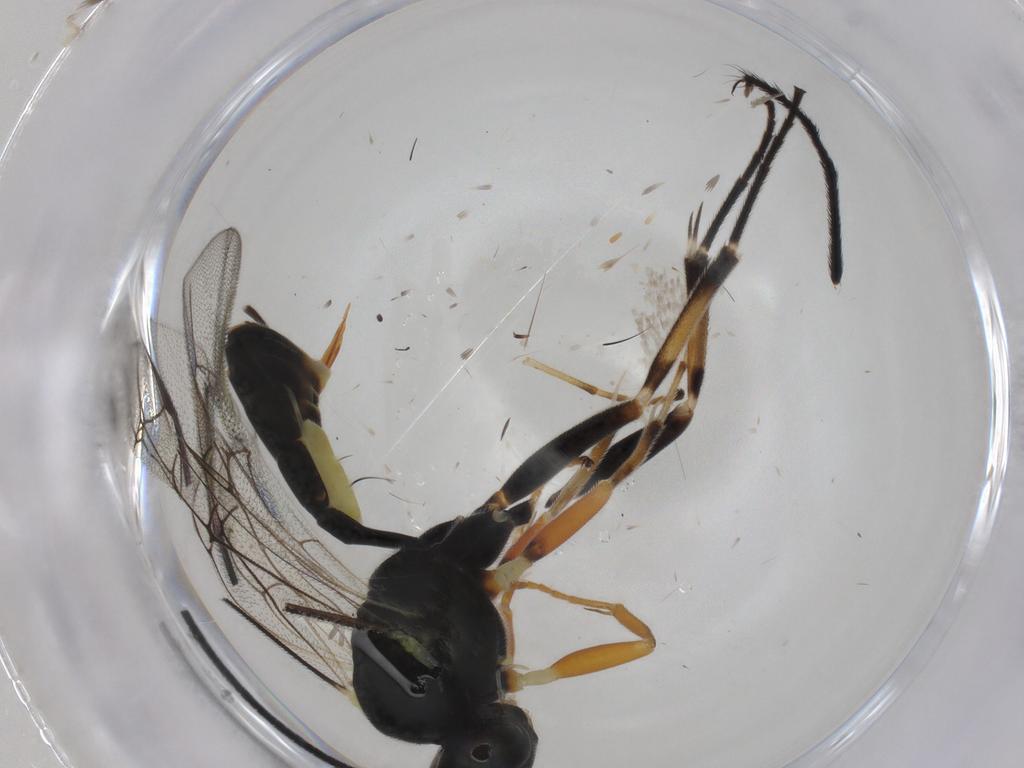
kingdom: Animalia
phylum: Arthropoda
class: Insecta
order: Hymenoptera
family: Ichneumonidae
